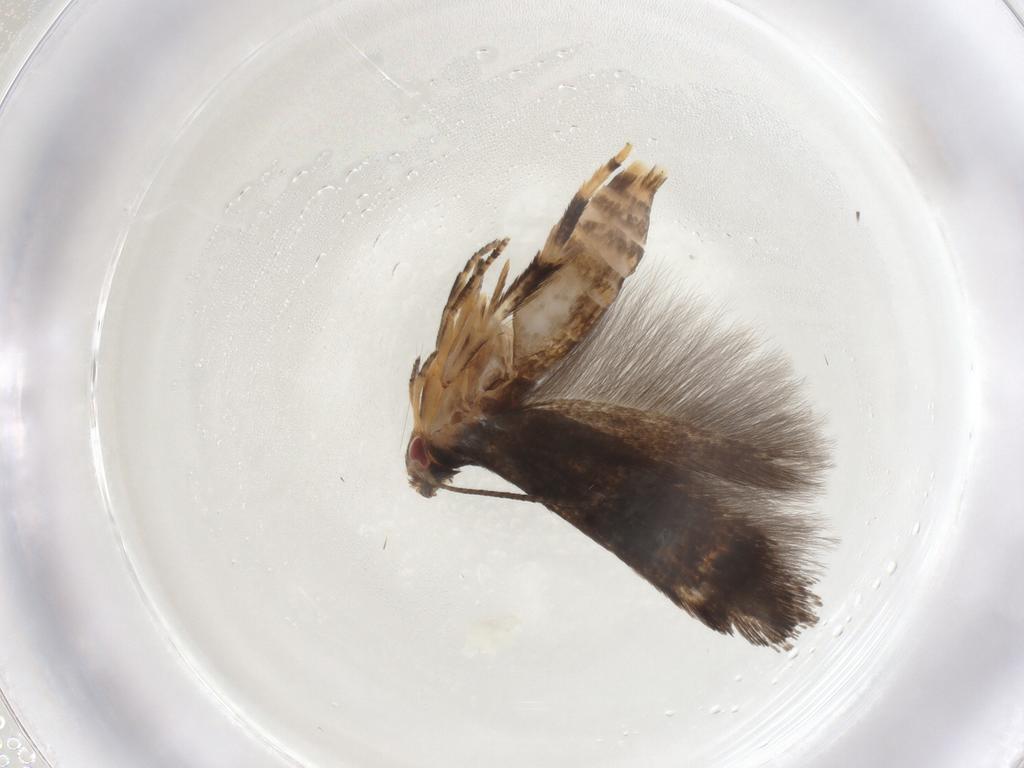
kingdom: Animalia
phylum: Arthropoda
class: Insecta
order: Lepidoptera
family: Momphidae
